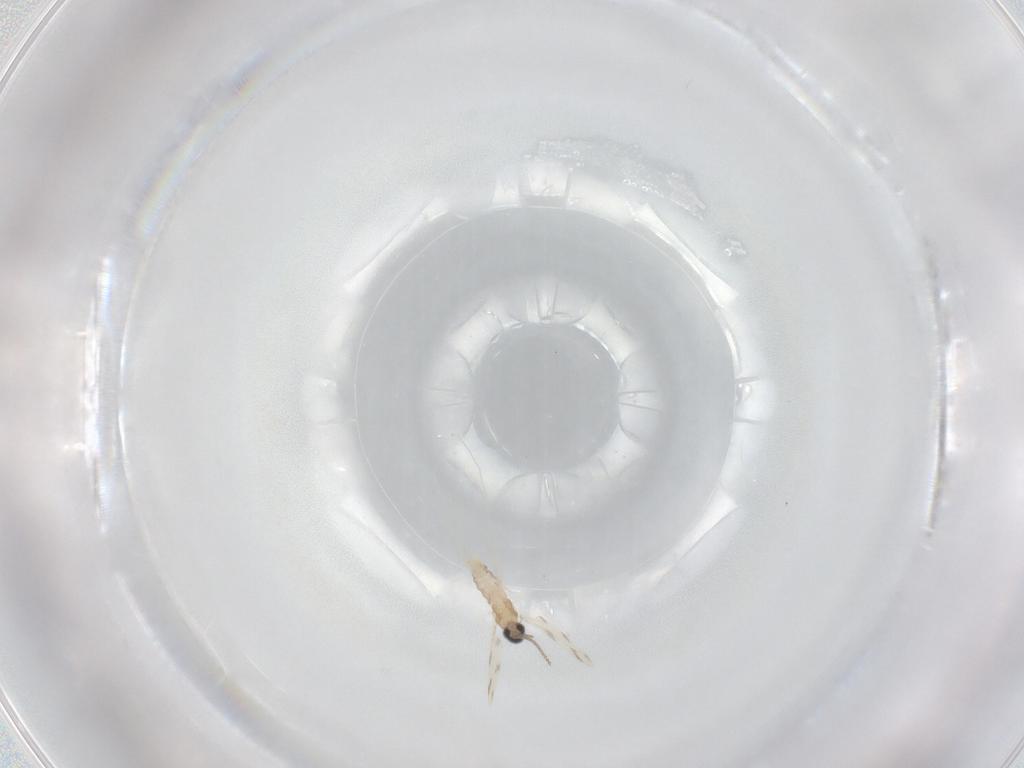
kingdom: Animalia
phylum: Arthropoda
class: Insecta
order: Diptera
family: Cecidomyiidae
